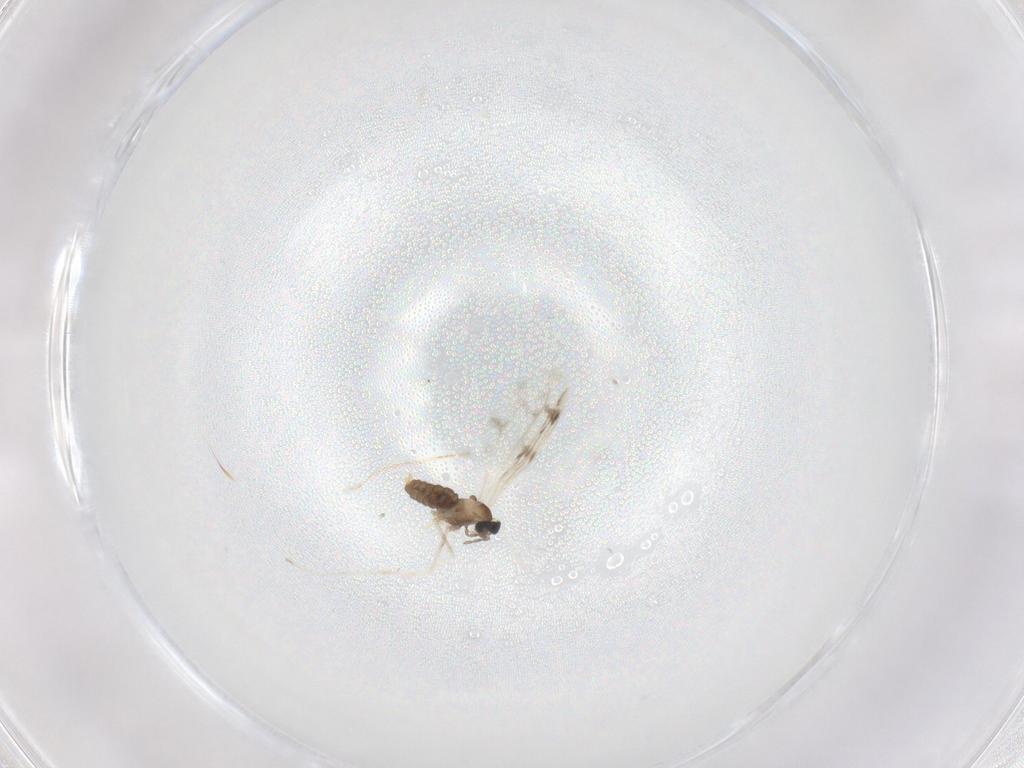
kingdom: Animalia
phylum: Arthropoda
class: Insecta
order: Diptera
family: Cecidomyiidae
